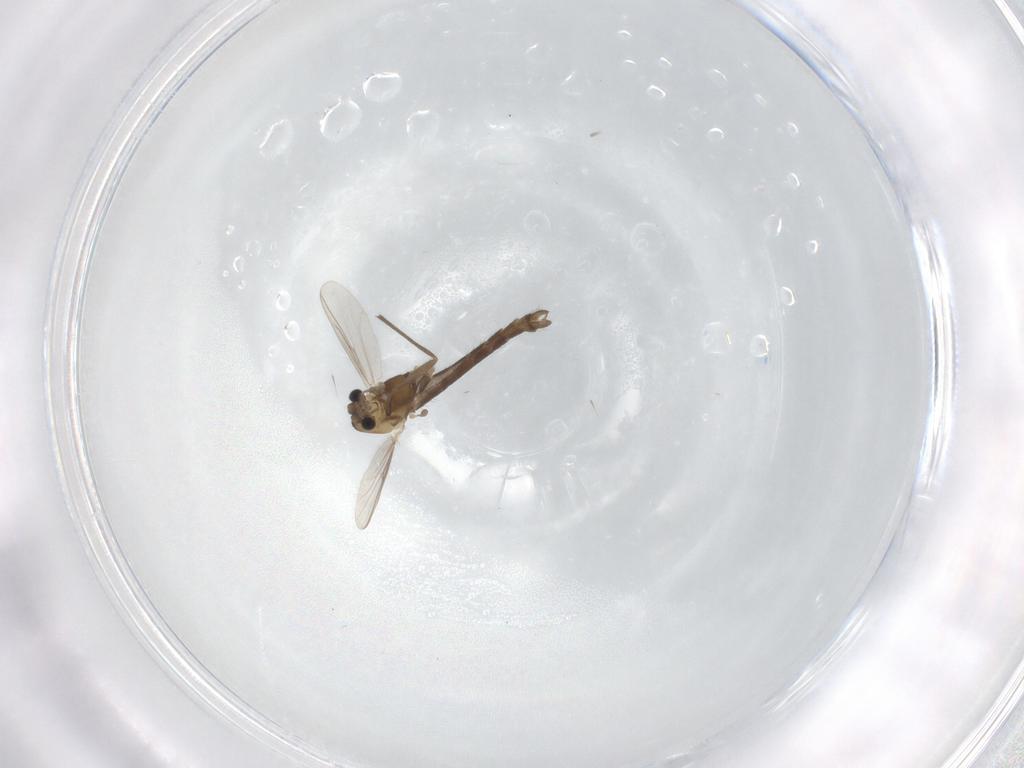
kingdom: Animalia
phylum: Arthropoda
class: Insecta
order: Diptera
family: Chironomidae
